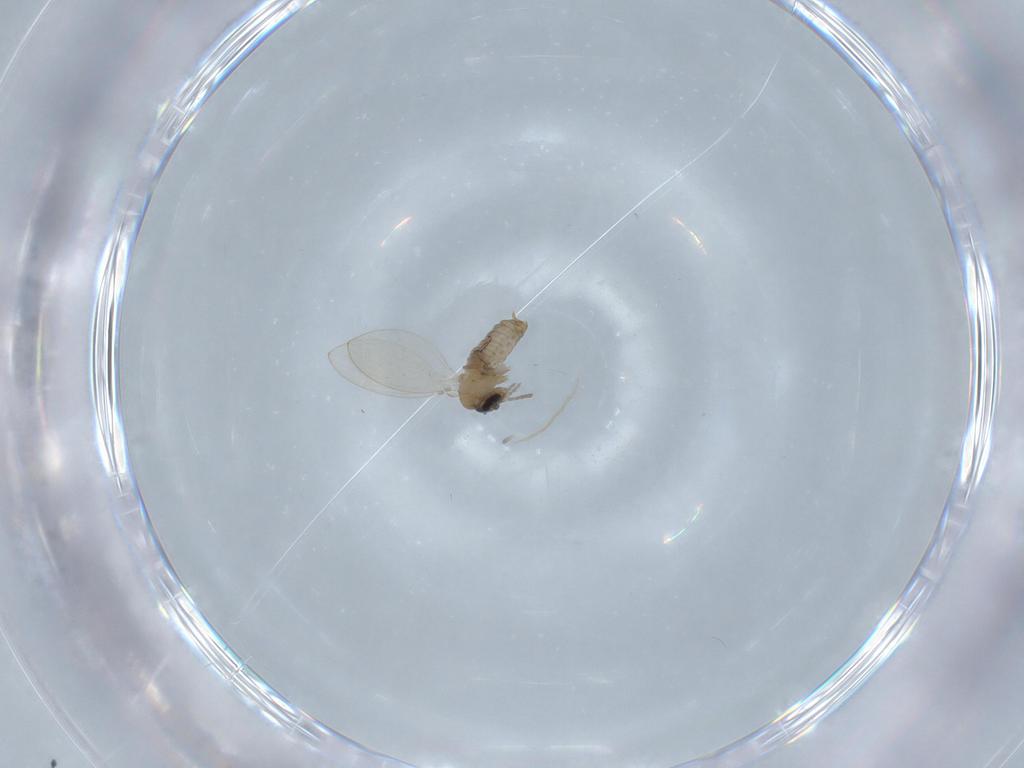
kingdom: Animalia
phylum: Arthropoda
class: Insecta
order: Diptera
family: Psychodidae
